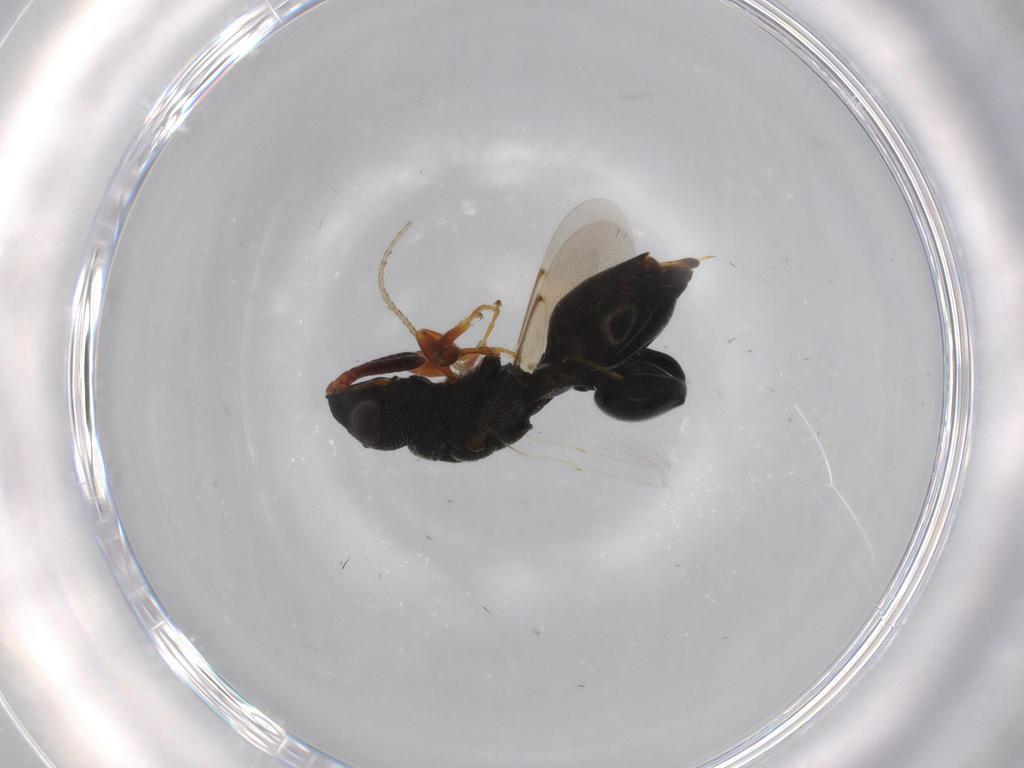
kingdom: Animalia
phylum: Arthropoda
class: Insecta
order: Hymenoptera
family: Chalcididae
